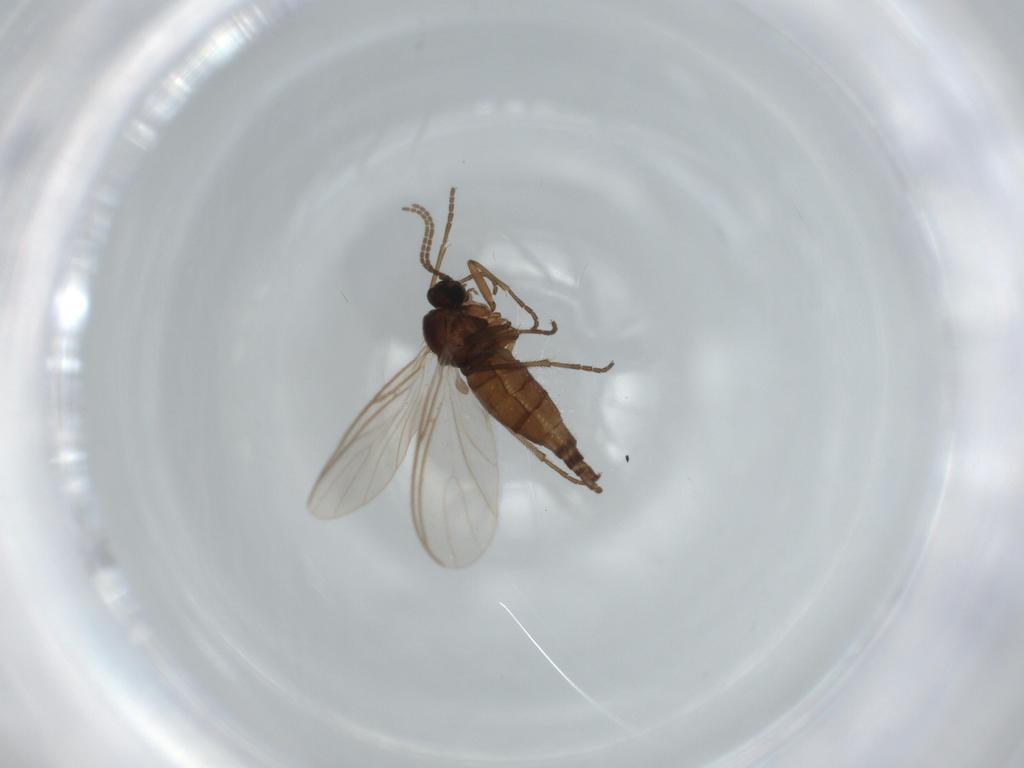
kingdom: Animalia
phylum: Arthropoda
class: Insecta
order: Diptera
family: Sciaridae
